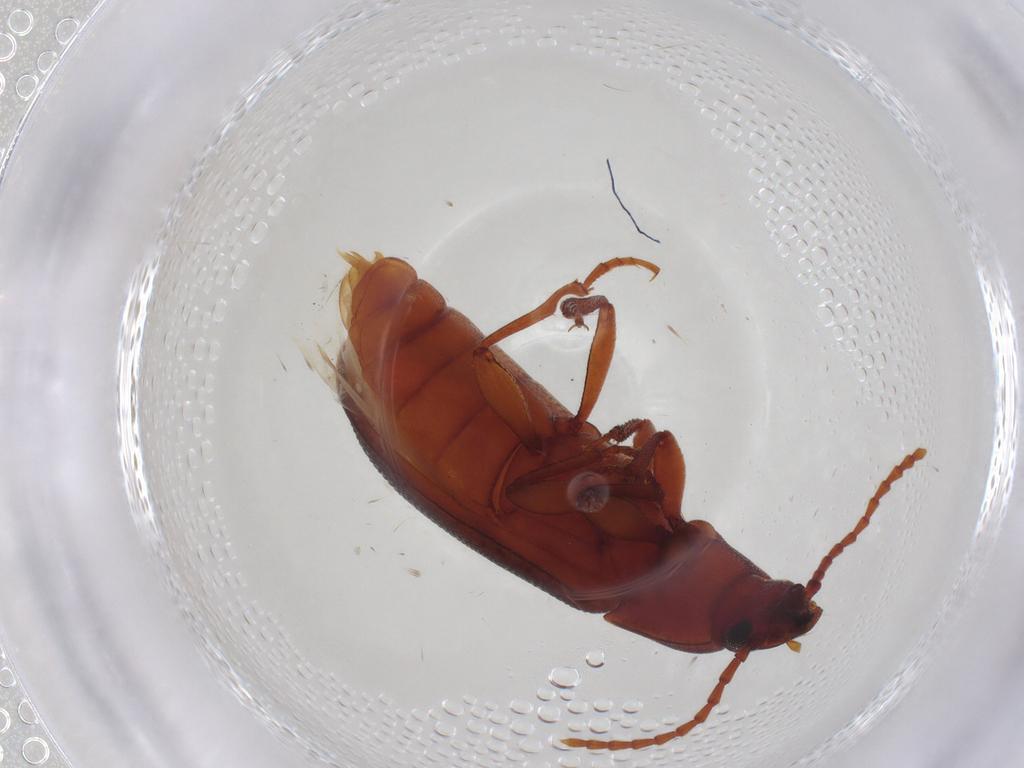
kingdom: Animalia
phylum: Arthropoda
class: Insecta
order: Coleoptera
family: Tenebrionidae
